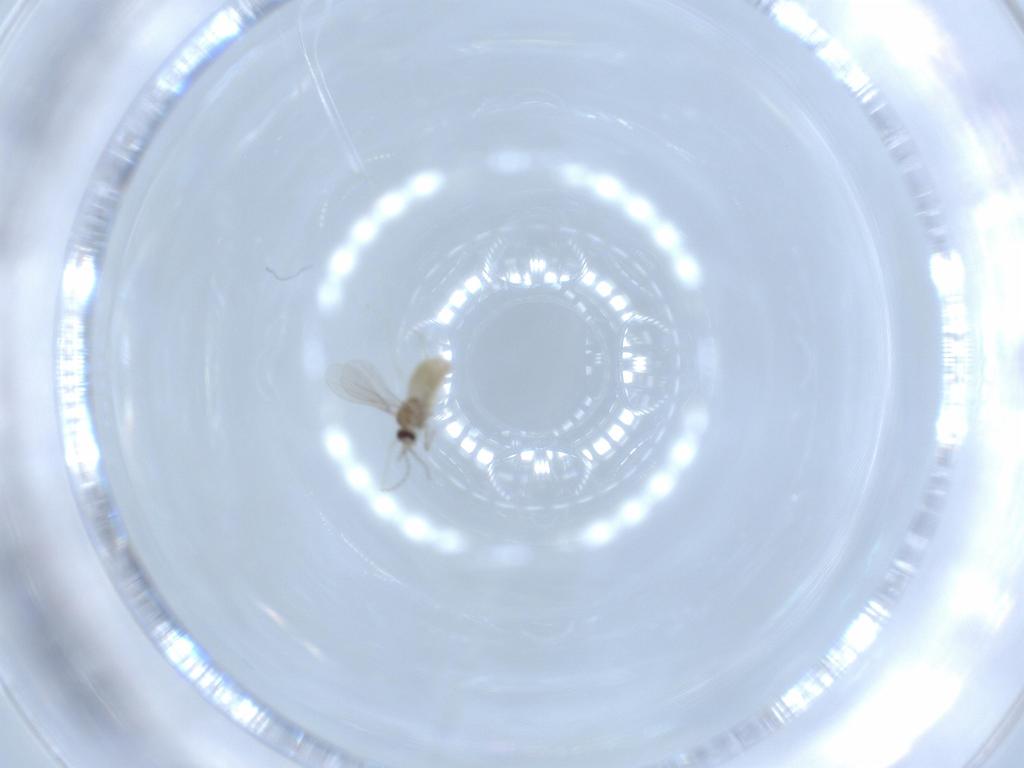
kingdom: Animalia
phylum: Arthropoda
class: Insecta
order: Diptera
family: Cecidomyiidae
